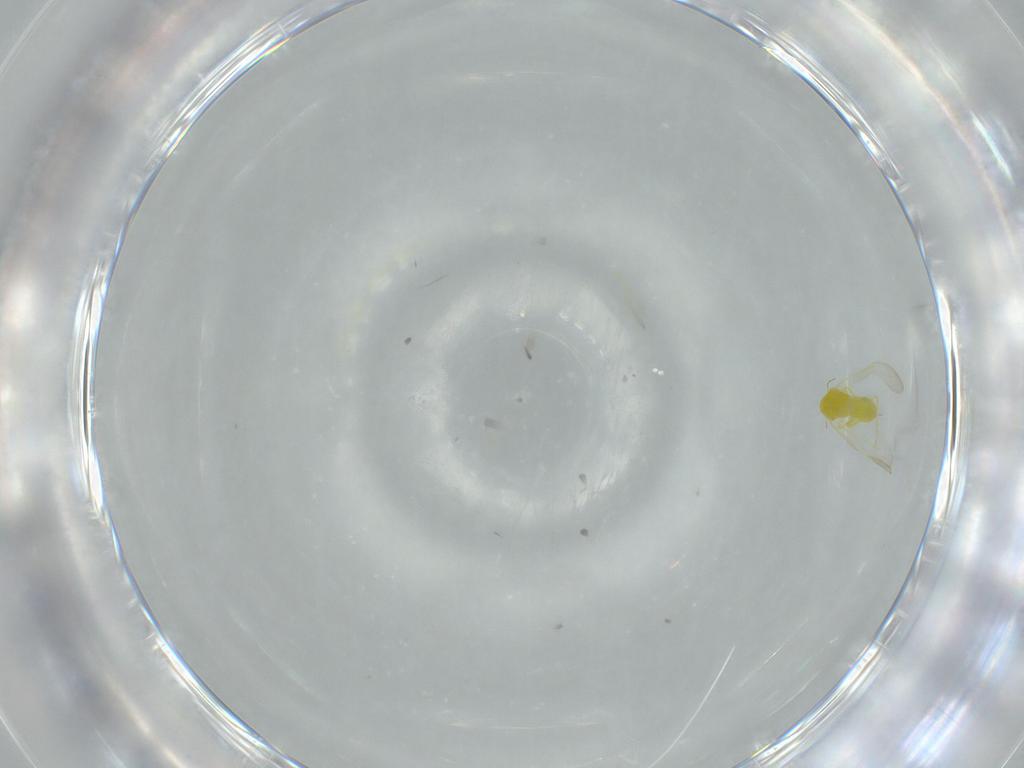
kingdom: Animalia
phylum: Arthropoda
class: Insecta
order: Hemiptera
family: Aleyrodidae
